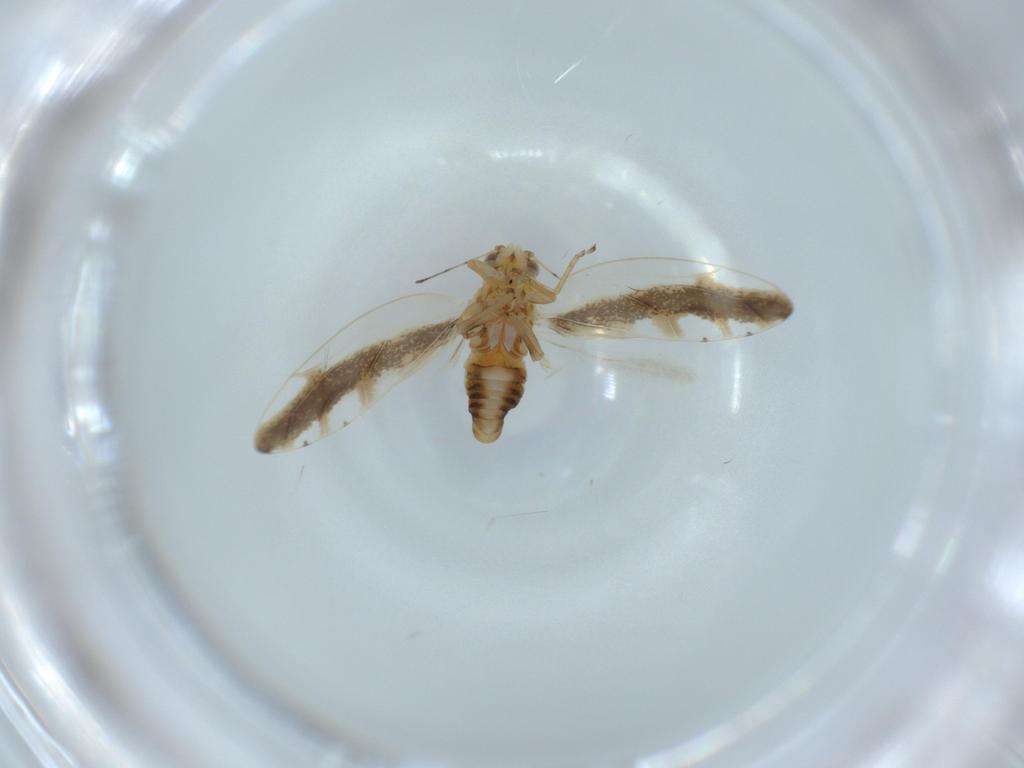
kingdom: Animalia
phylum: Arthropoda
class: Insecta
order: Hemiptera
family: Triozidae
